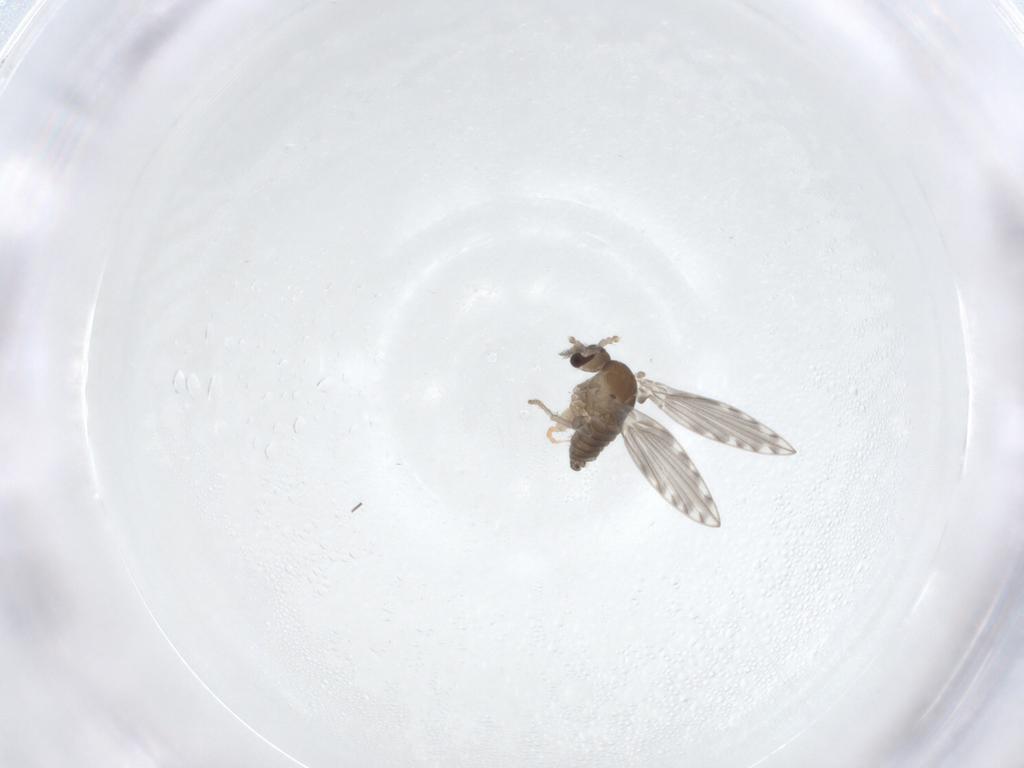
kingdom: Animalia
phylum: Arthropoda
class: Insecta
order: Diptera
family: Psychodidae
